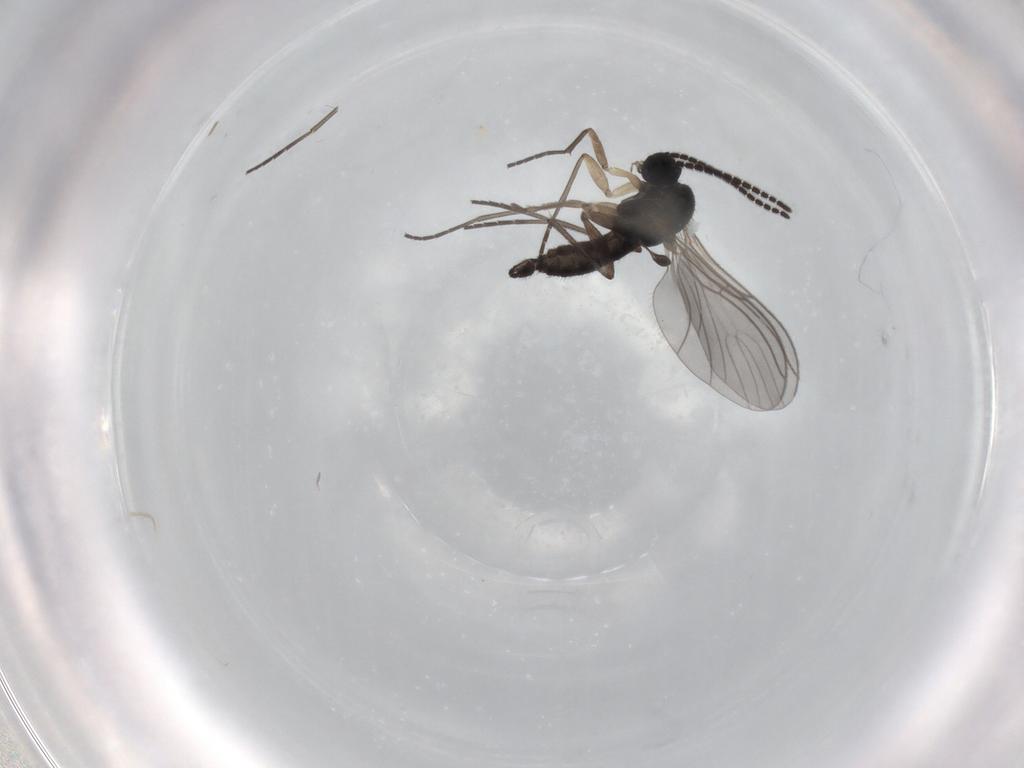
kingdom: Animalia
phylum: Arthropoda
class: Insecta
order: Diptera
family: Sciaridae
